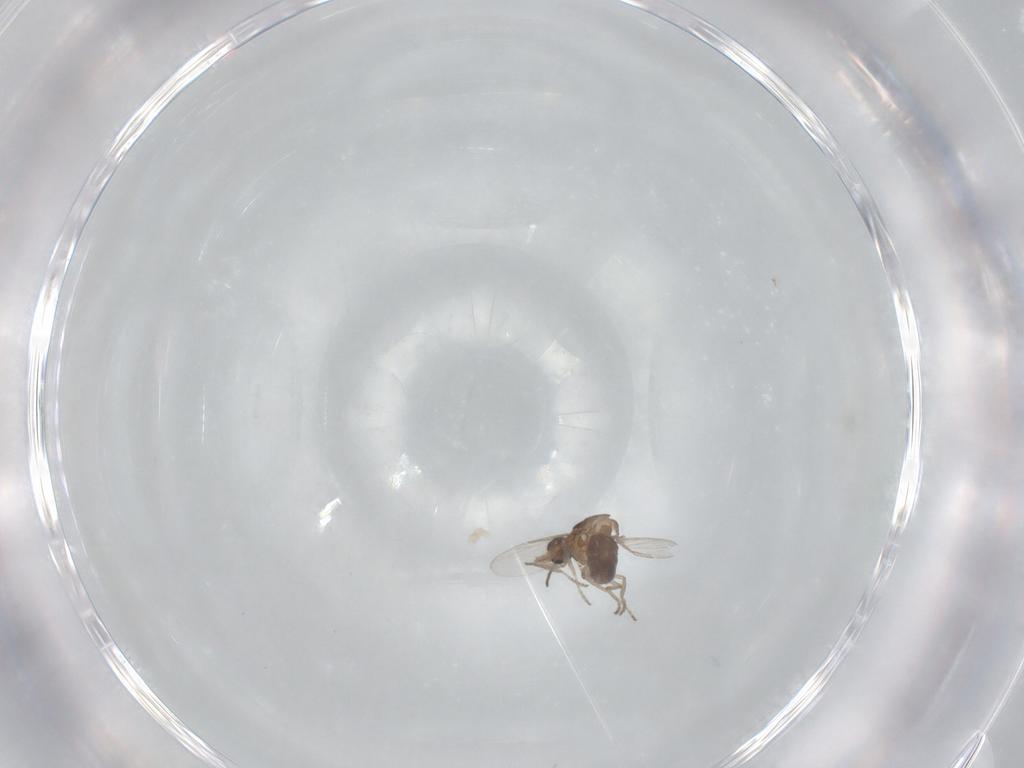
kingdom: Animalia
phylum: Arthropoda
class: Insecta
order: Diptera
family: Ceratopogonidae
